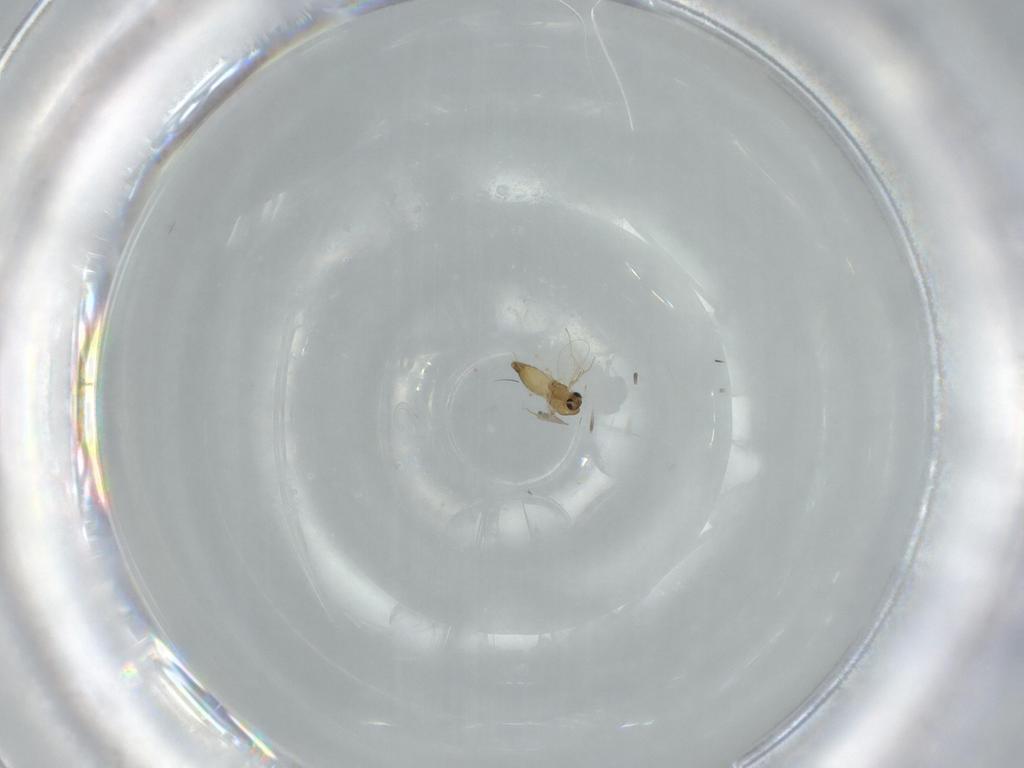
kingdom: Animalia
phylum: Arthropoda
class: Insecta
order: Diptera
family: Chironomidae
